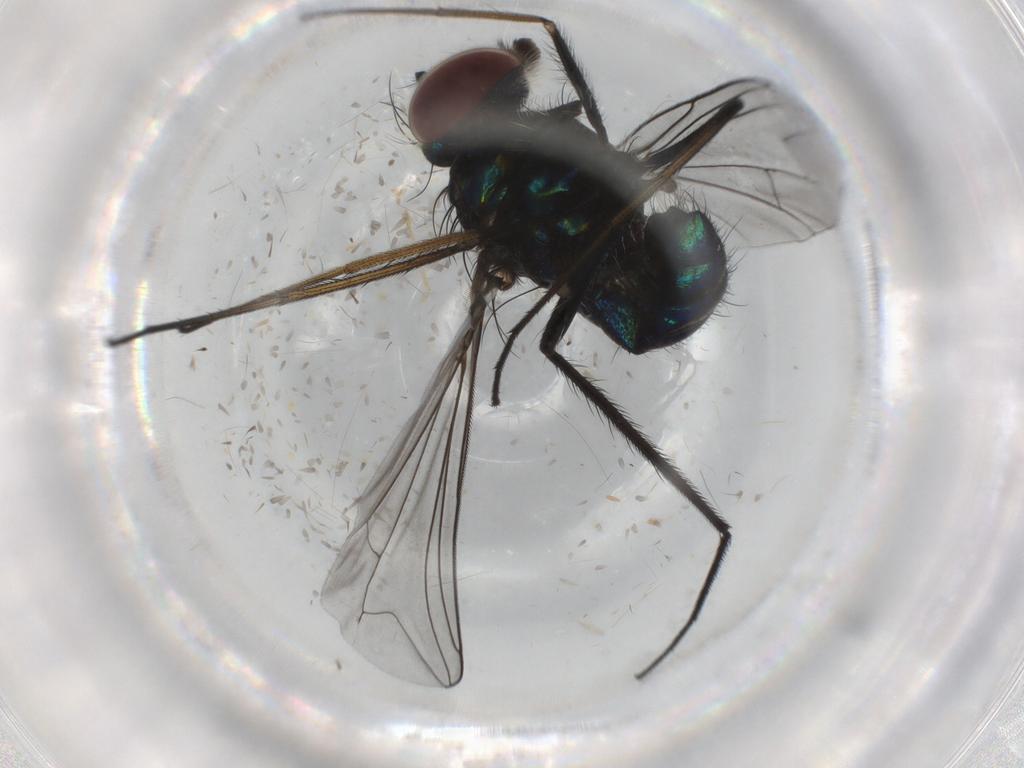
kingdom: Animalia
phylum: Arthropoda
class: Insecta
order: Diptera
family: Dolichopodidae
